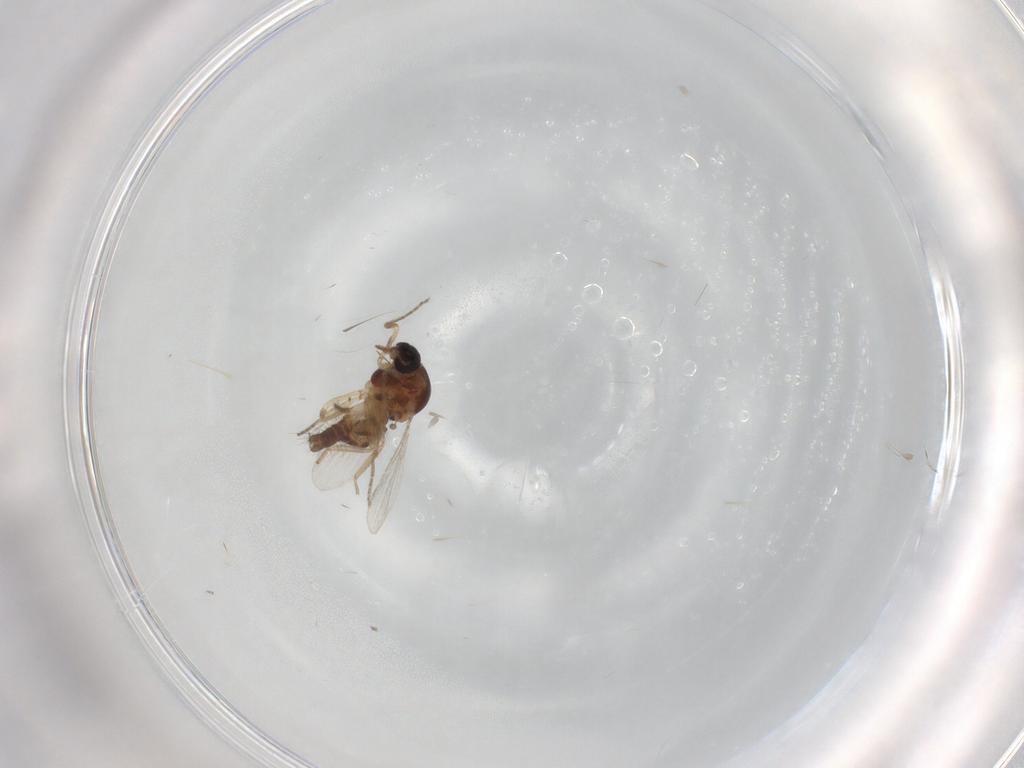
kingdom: Animalia
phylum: Arthropoda
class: Insecta
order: Diptera
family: Ceratopogonidae
